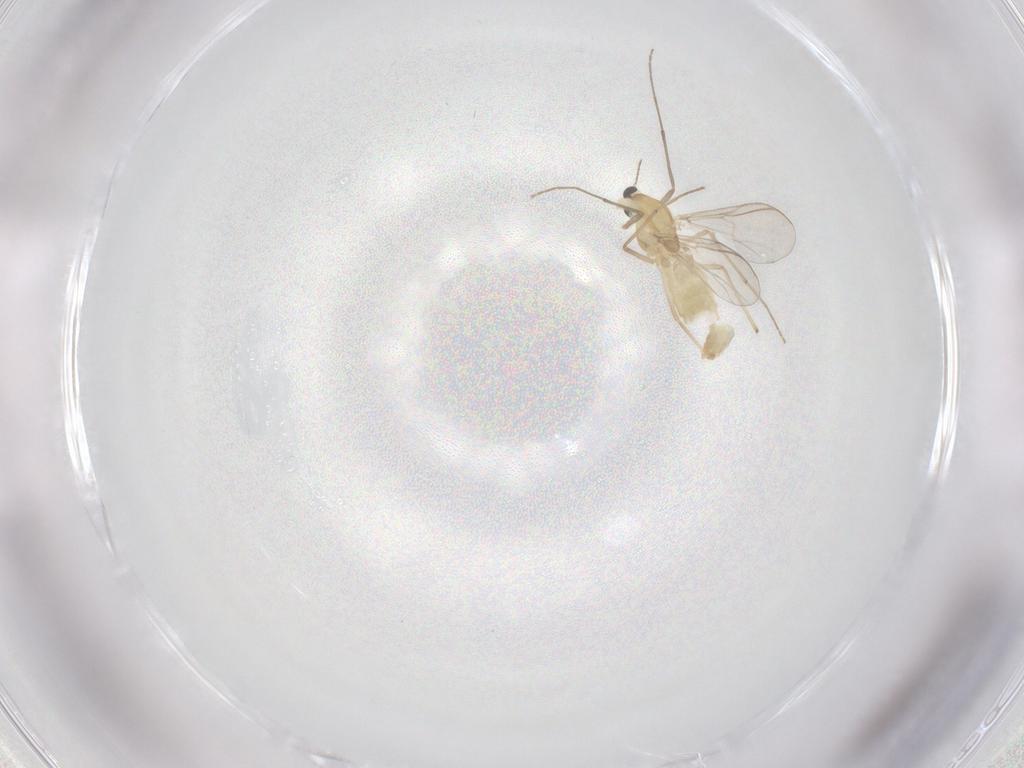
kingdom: Animalia
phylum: Arthropoda
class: Insecta
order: Diptera
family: Chironomidae
